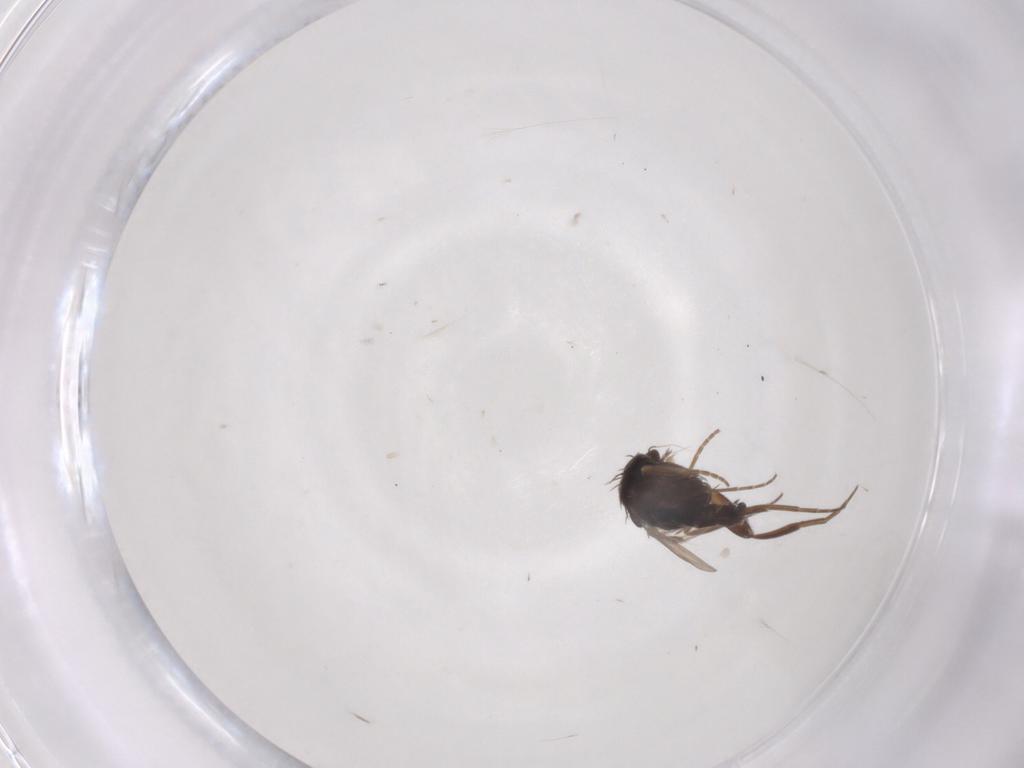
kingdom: Animalia
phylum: Arthropoda
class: Insecta
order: Diptera
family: Phoridae
